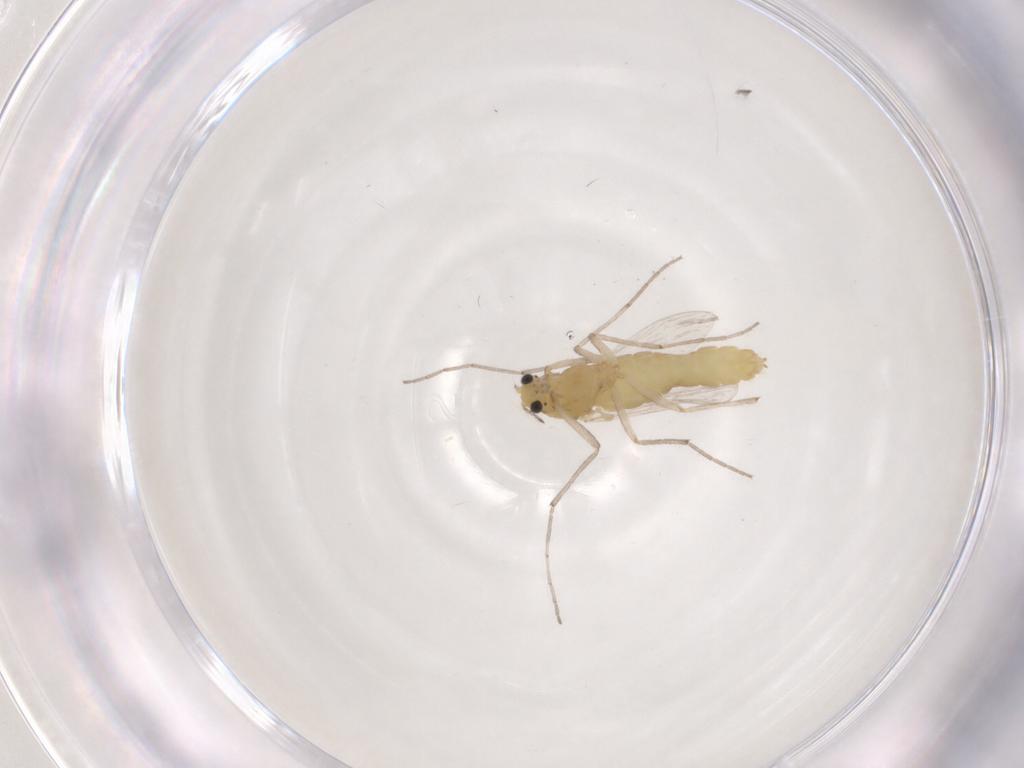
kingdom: Animalia
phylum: Arthropoda
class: Insecta
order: Diptera
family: Chironomidae
